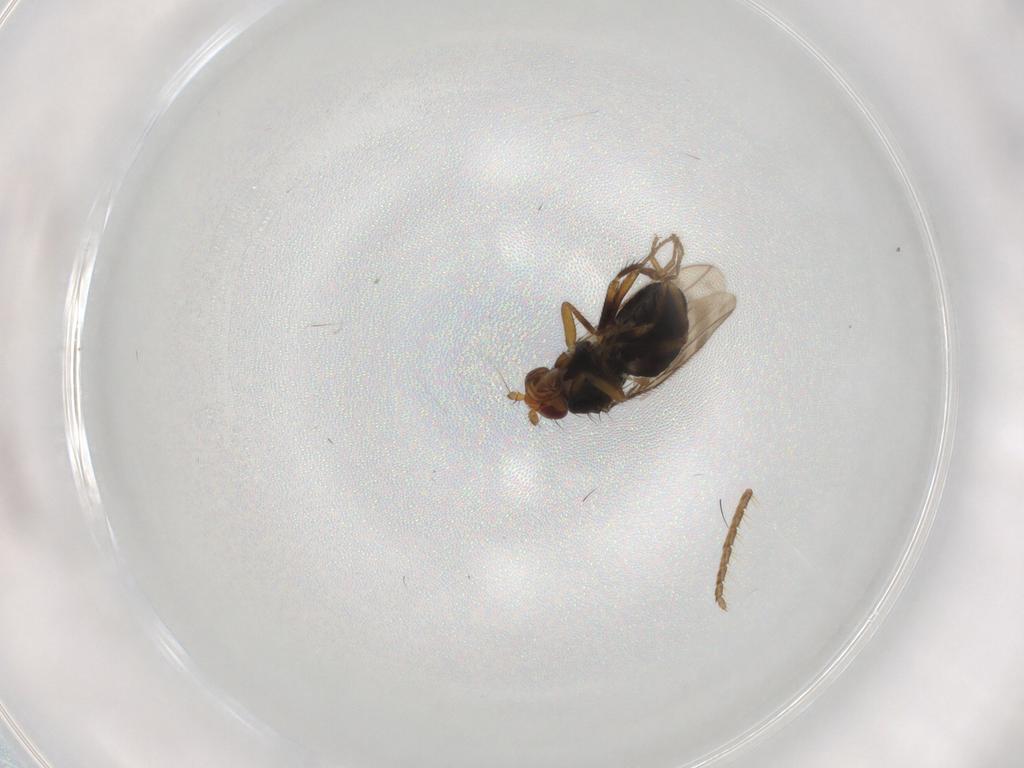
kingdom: Animalia
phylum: Arthropoda
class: Insecta
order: Diptera
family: Sphaeroceridae
